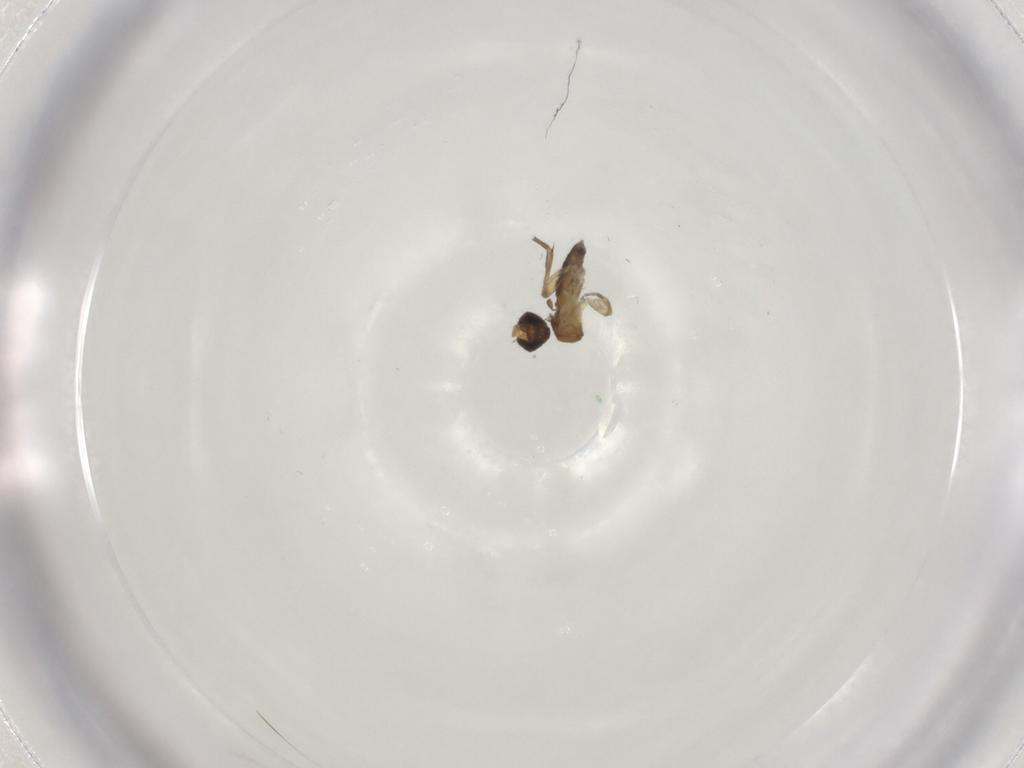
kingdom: Animalia
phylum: Arthropoda
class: Insecta
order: Diptera
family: Phoridae
